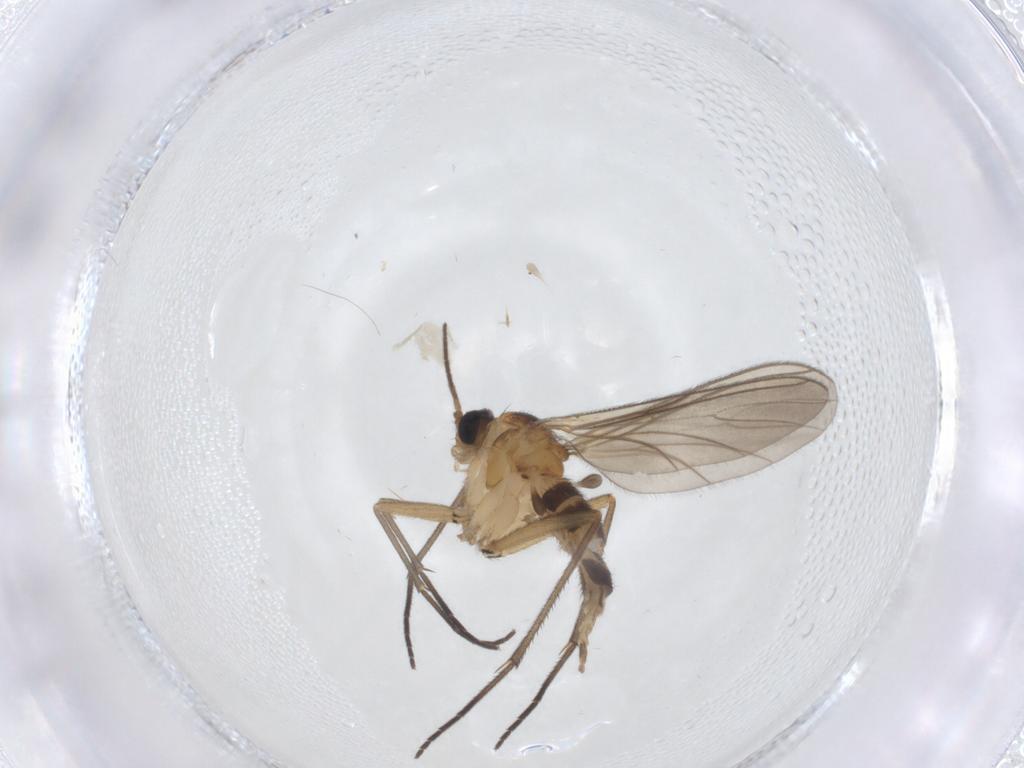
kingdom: Animalia
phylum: Arthropoda
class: Insecta
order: Diptera
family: Sciaridae
